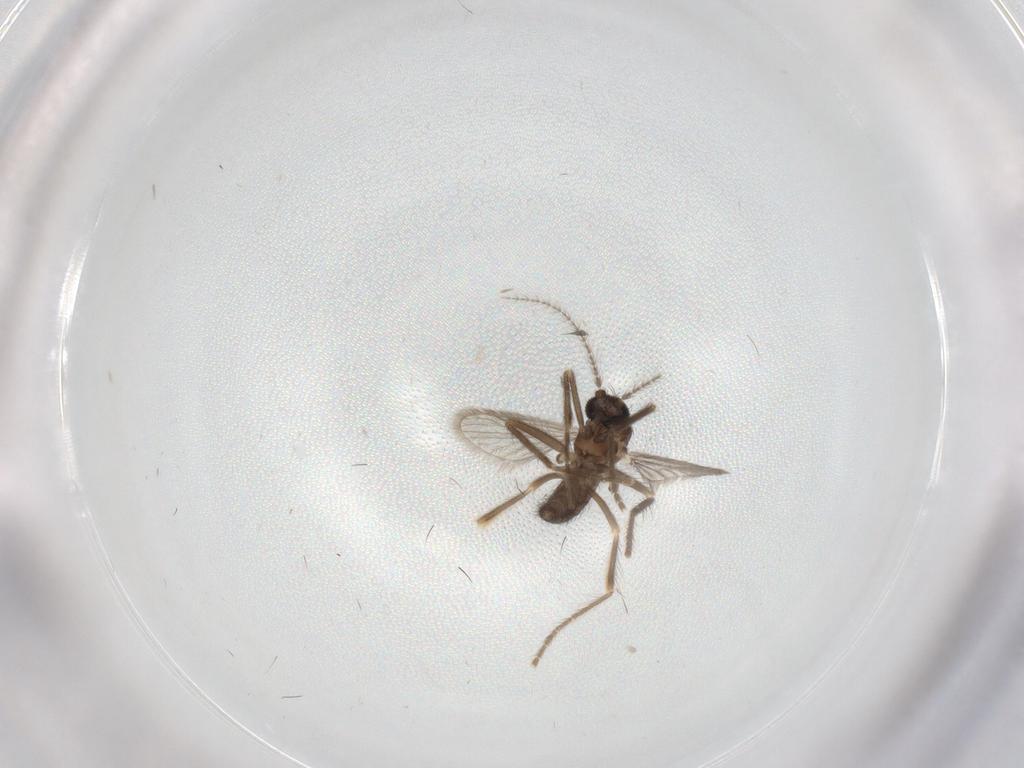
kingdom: Animalia
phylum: Arthropoda
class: Insecta
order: Diptera
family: Corethrellidae
